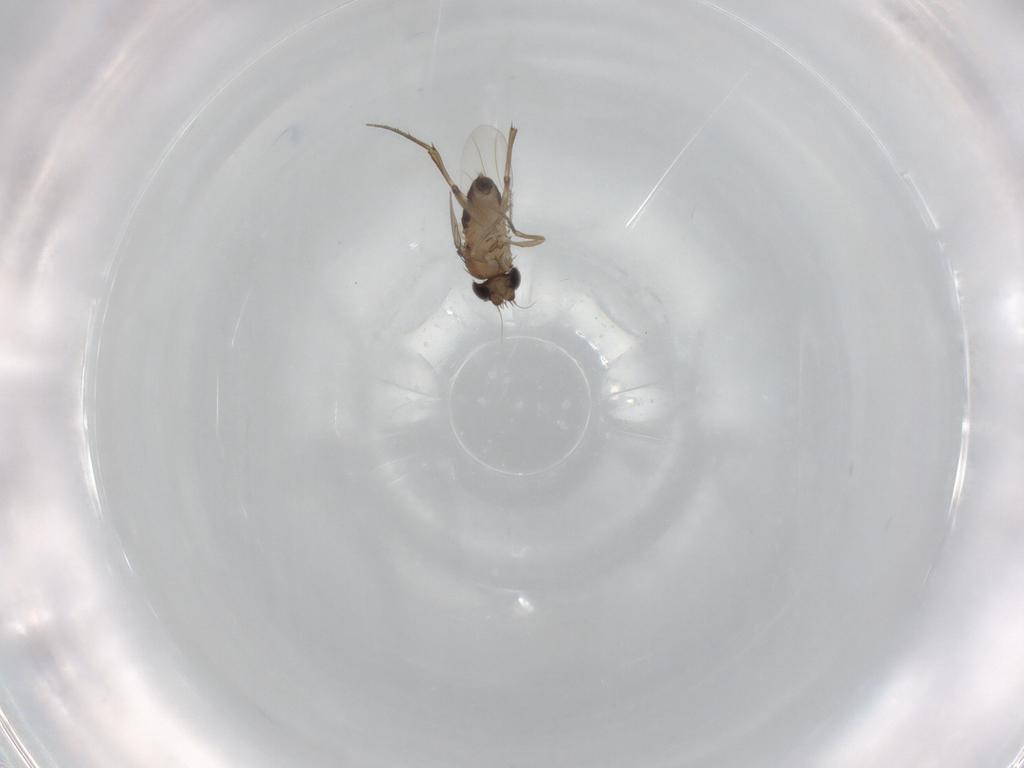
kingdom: Animalia
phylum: Arthropoda
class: Insecta
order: Diptera
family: Phoridae
